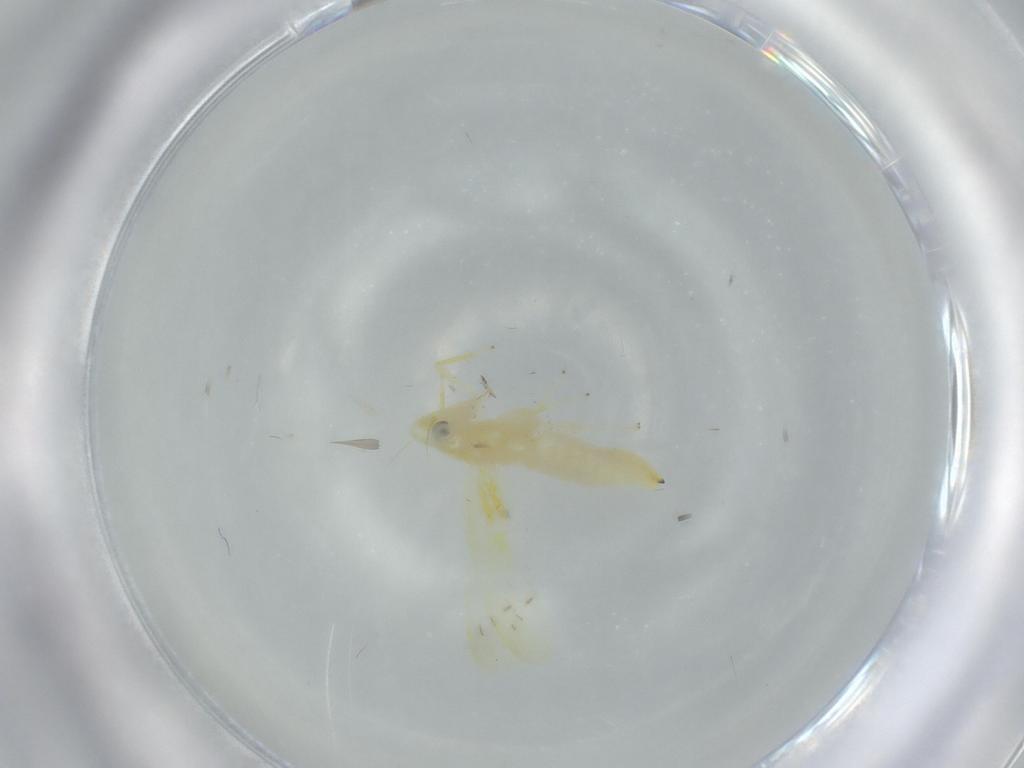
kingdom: Animalia
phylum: Arthropoda
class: Insecta
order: Hemiptera
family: Cicadellidae
